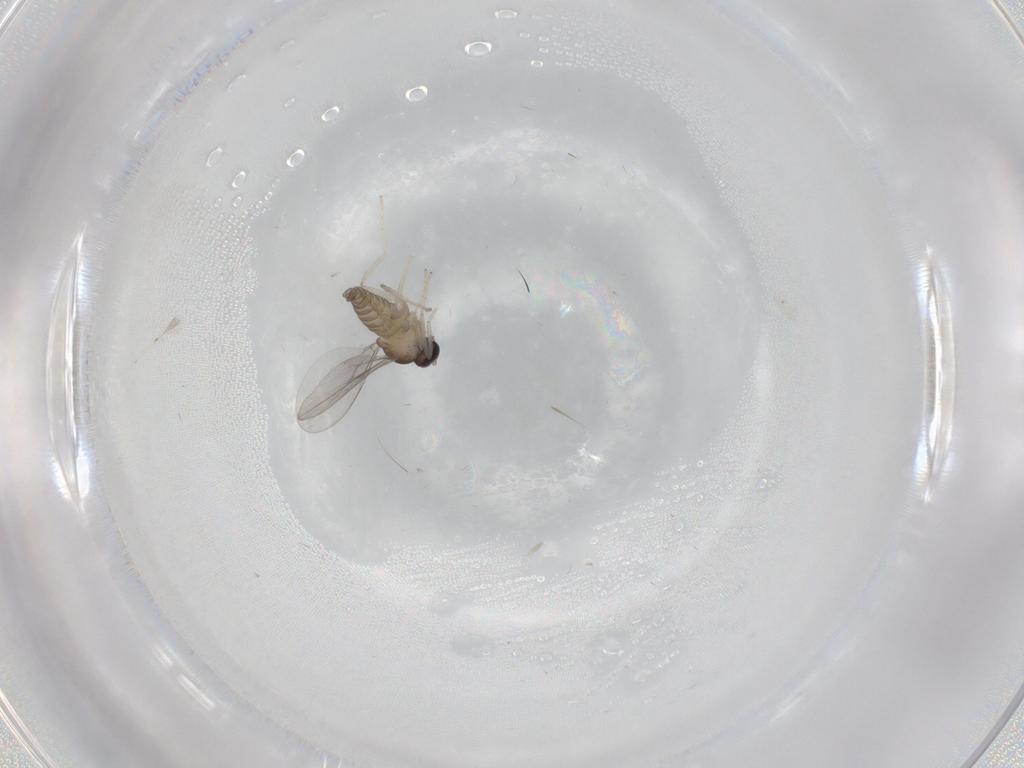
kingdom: Animalia
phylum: Arthropoda
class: Insecta
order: Diptera
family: Cecidomyiidae
